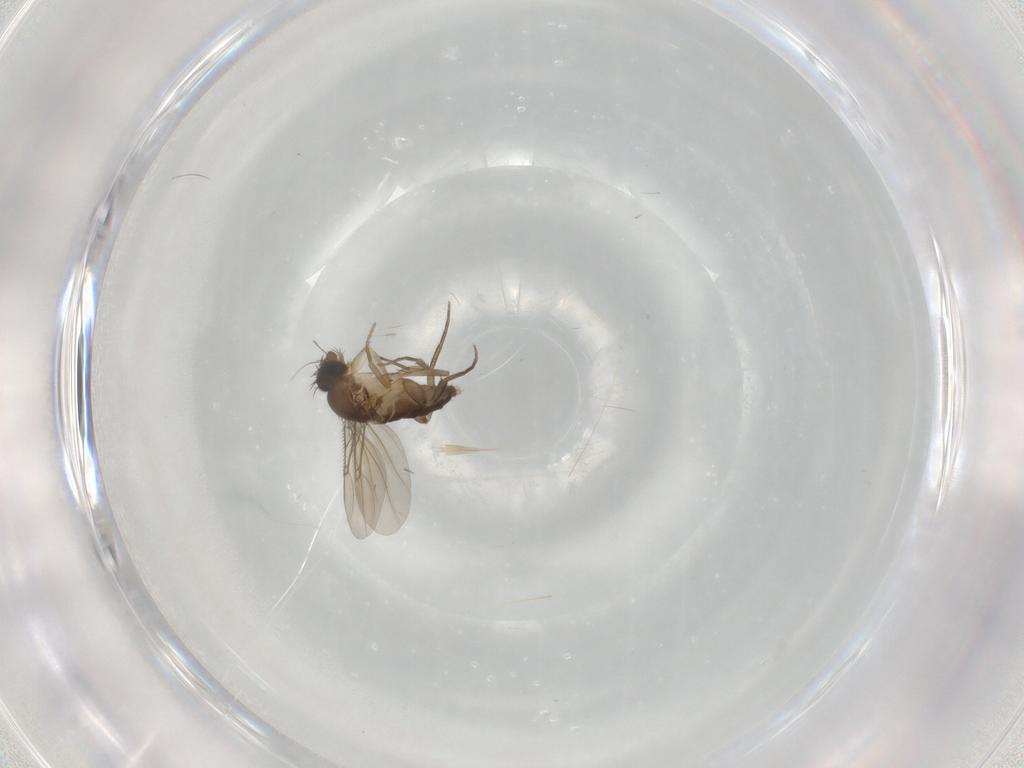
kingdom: Animalia
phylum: Arthropoda
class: Insecta
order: Diptera
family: Phoridae
